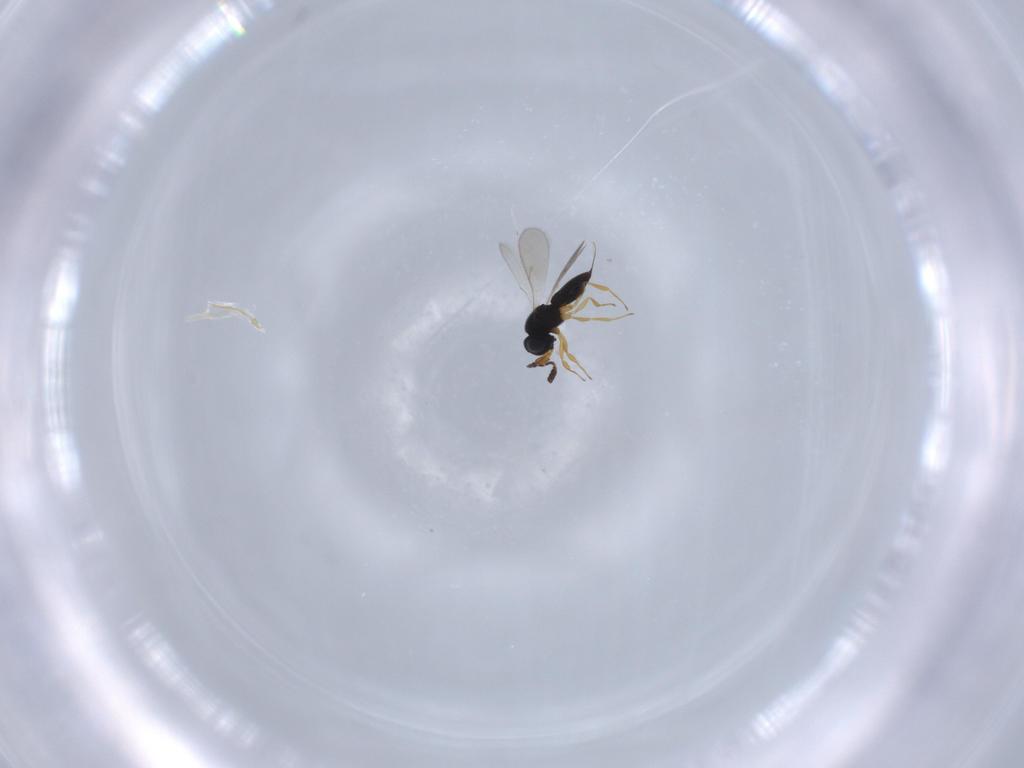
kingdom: Animalia
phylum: Arthropoda
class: Insecta
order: Hymenoptera
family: Scelionidae
